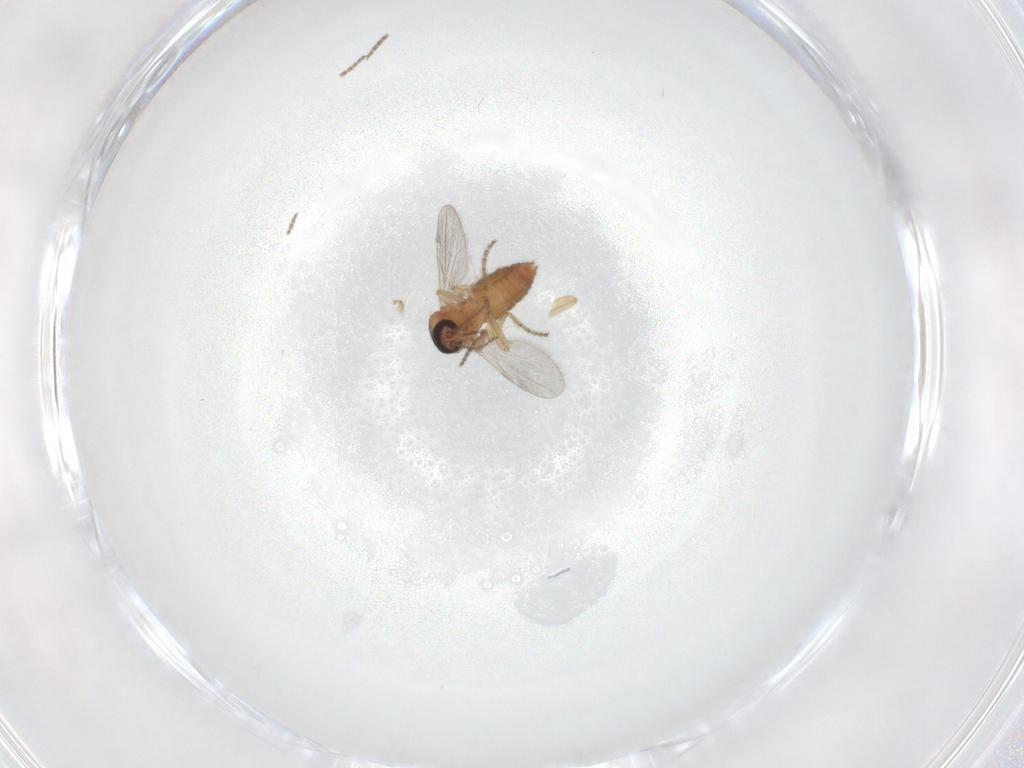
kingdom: Animalia
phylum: Arthropoda
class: Insecta
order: Diptera
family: Ceratopogonidae
